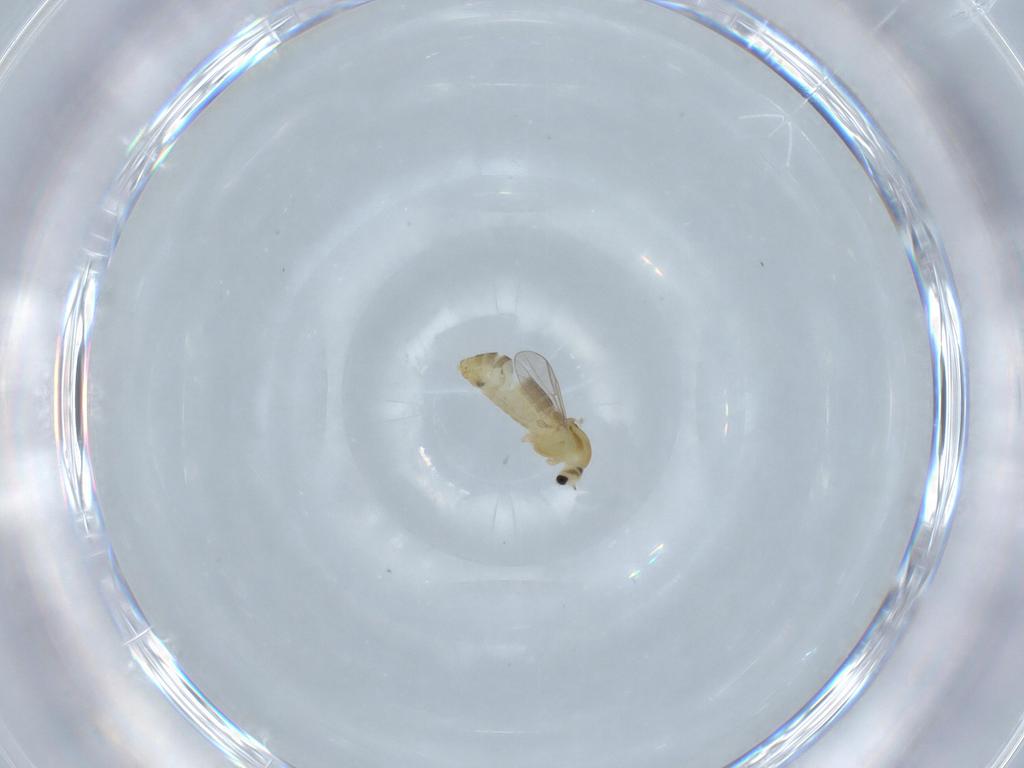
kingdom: Animalia
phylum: Arthropoda
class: Insecta
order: Diptera
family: Chironomidae
